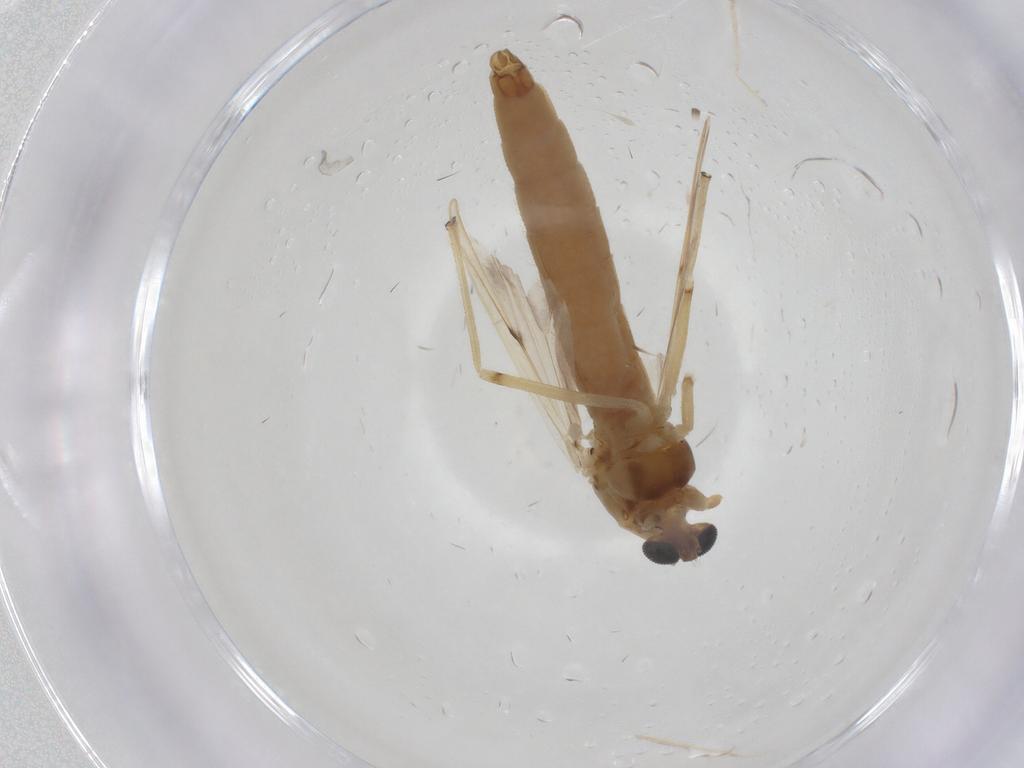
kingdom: Animalia
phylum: Arthropoda
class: Insecta
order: Diptera
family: Chironomidae
